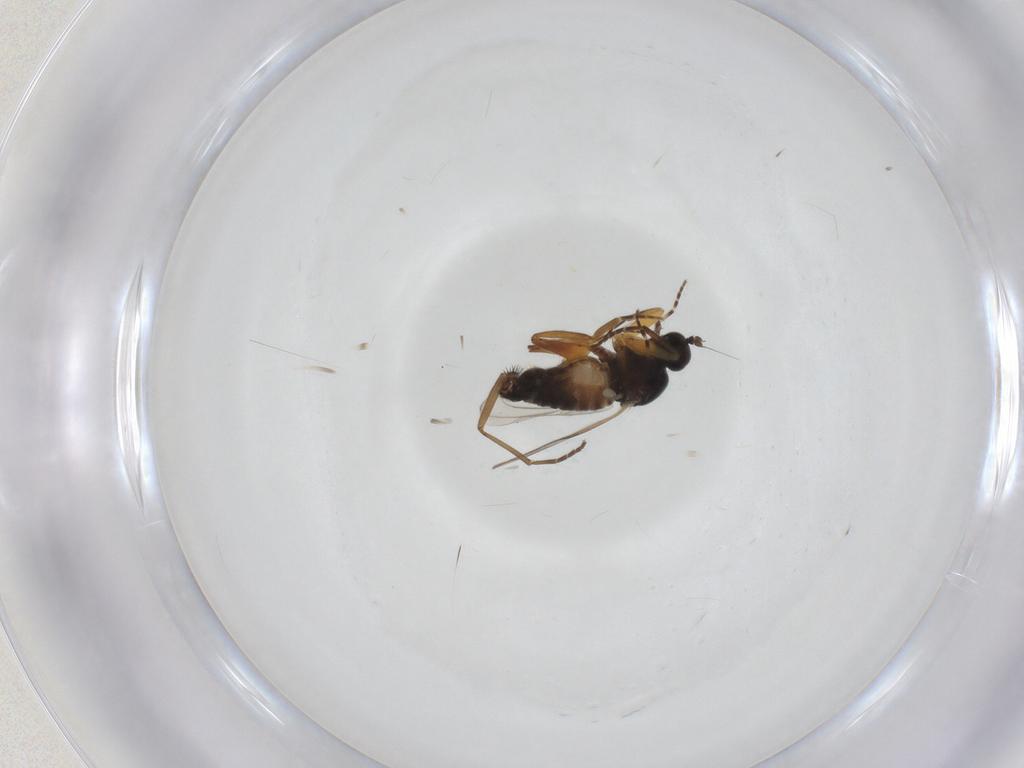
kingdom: Animalia
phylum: Arthropoda
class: Insecta
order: Diptera
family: Hybotidae
